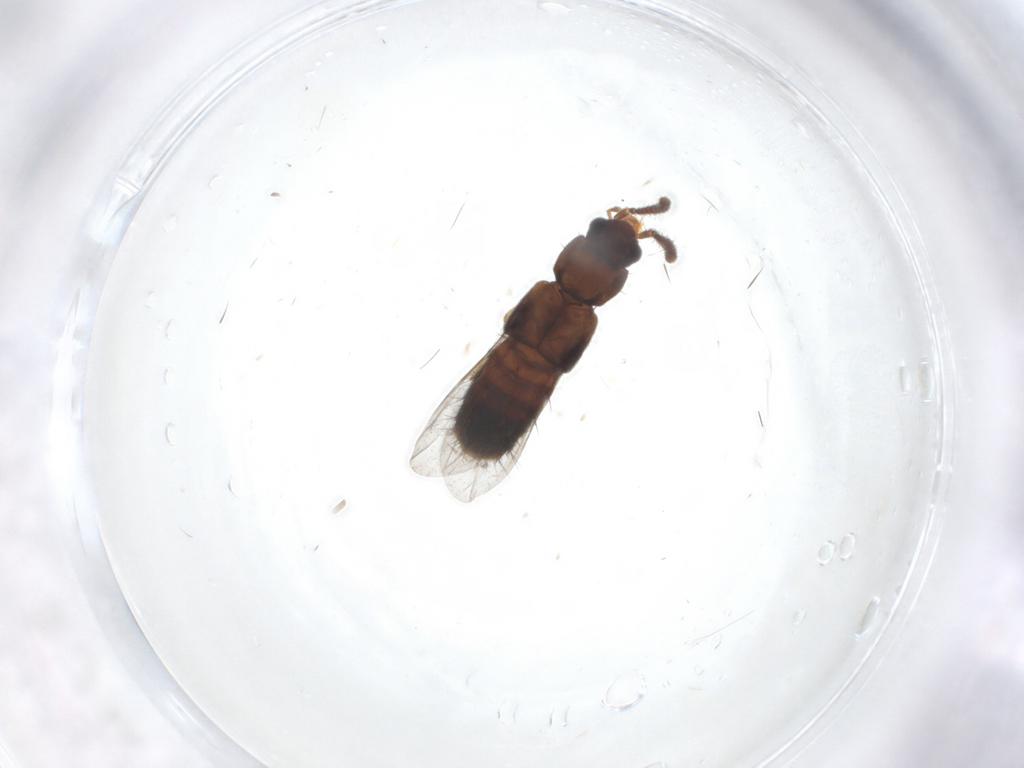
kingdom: Animalia
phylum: Arthropoda
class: Insecta
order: Coleoptera
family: Staphylinidae
